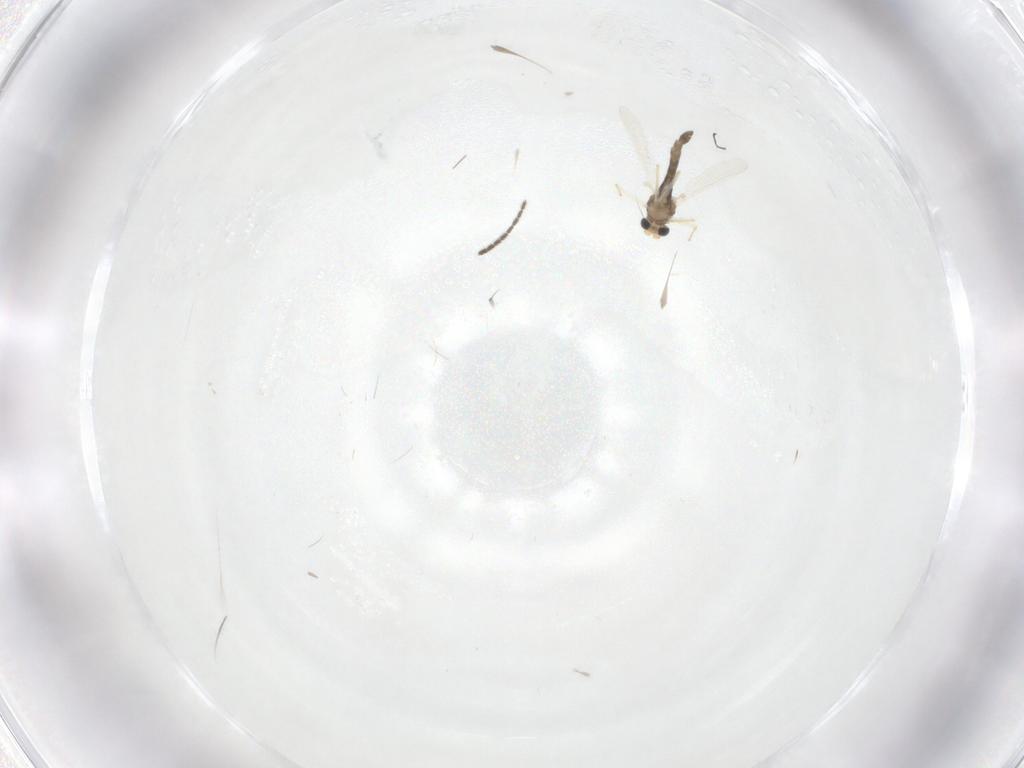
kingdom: Animalia
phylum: Arthropoda
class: Insecta
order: Diptera
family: Chironomidae
